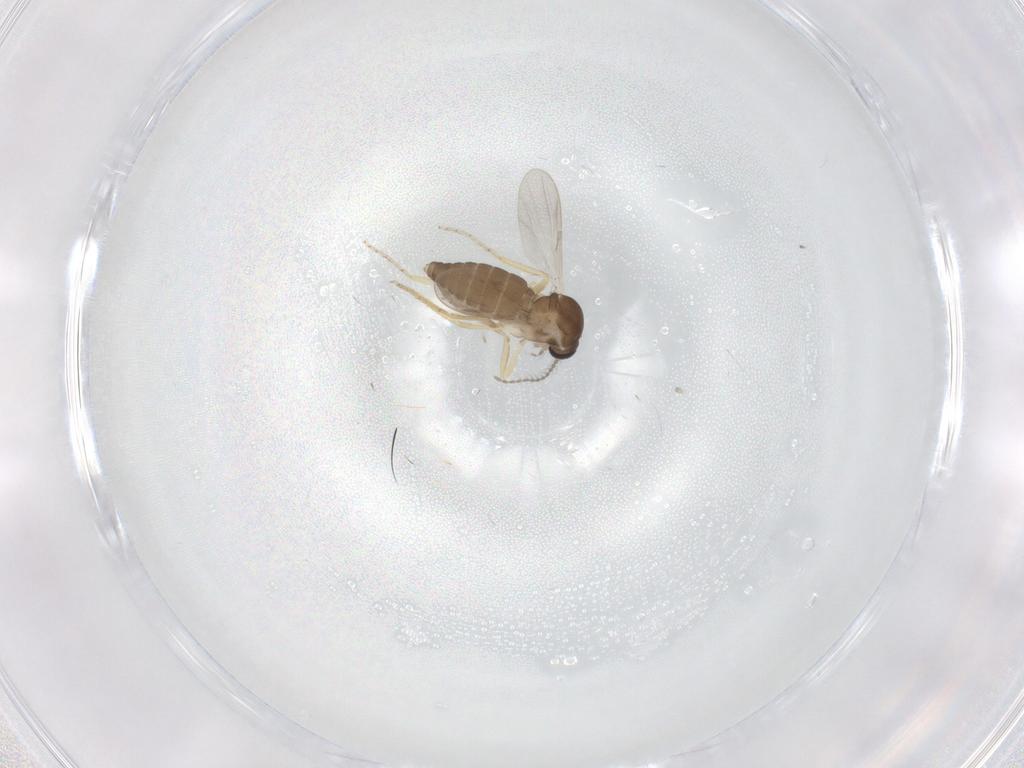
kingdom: Animalia
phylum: Arthropoda
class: Insecta
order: Diptera
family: Ceratopogonidae
